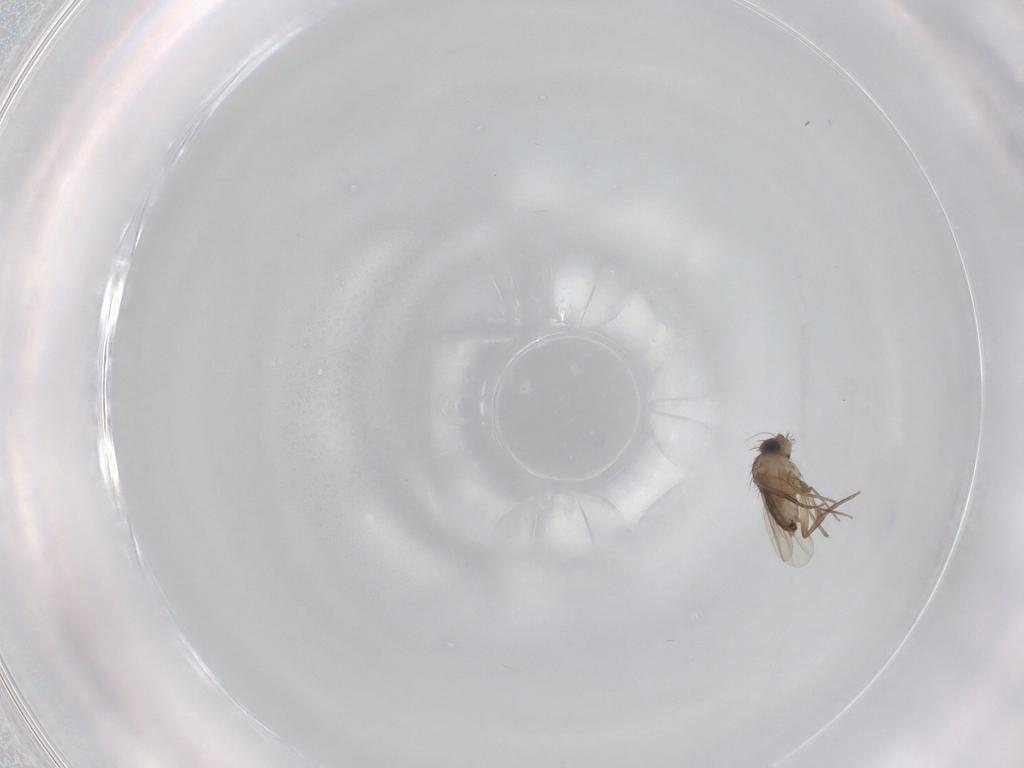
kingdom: Animalia
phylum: Arthropoda
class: Insecta
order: Diptera
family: Phoridae
